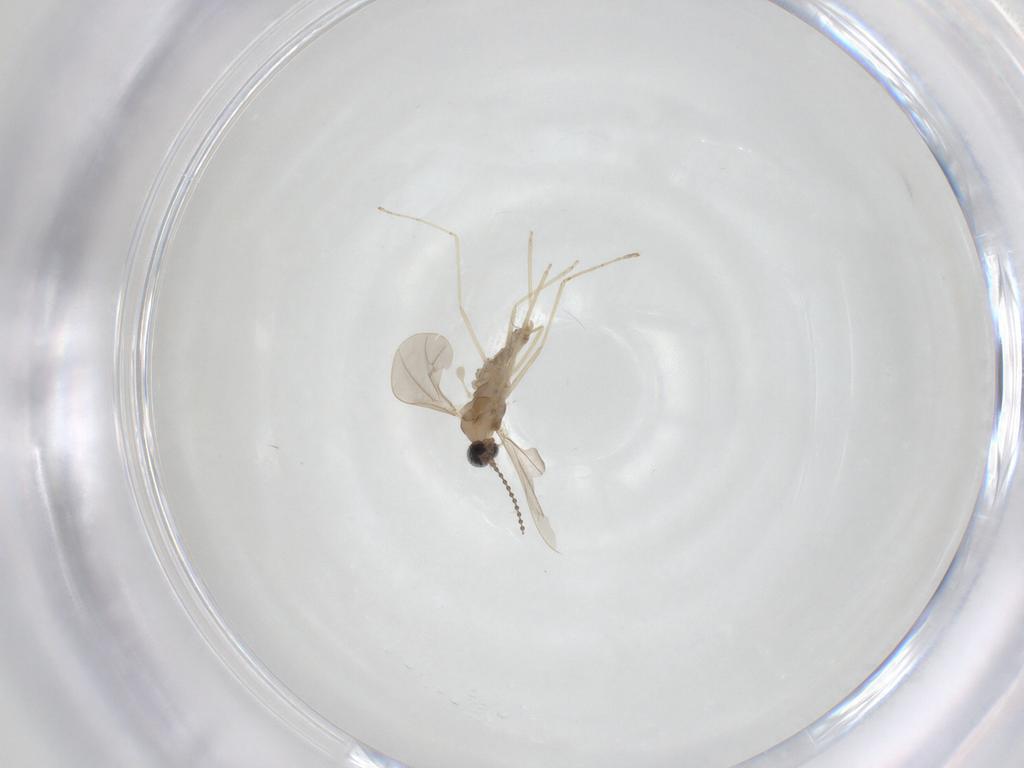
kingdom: Animalia
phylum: Arthropoda
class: Insecta
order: Diptera
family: Cecidomyiidae
